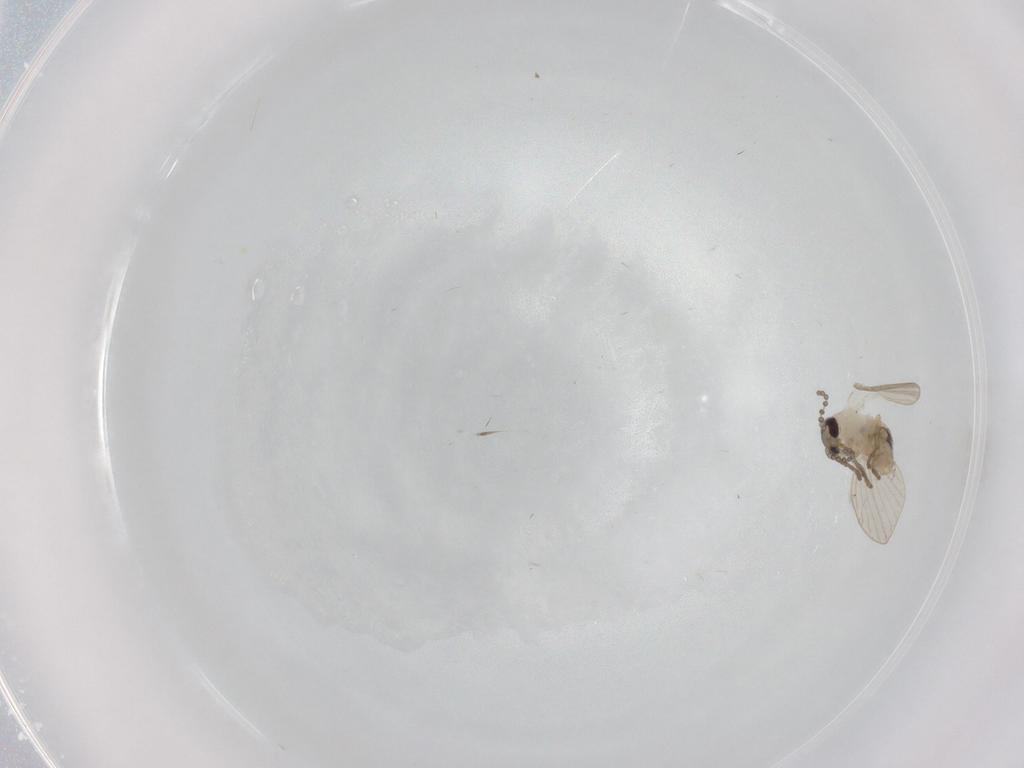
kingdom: Animalia
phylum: Arthropoda
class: Insecta
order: Diptera
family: Psychodidae
